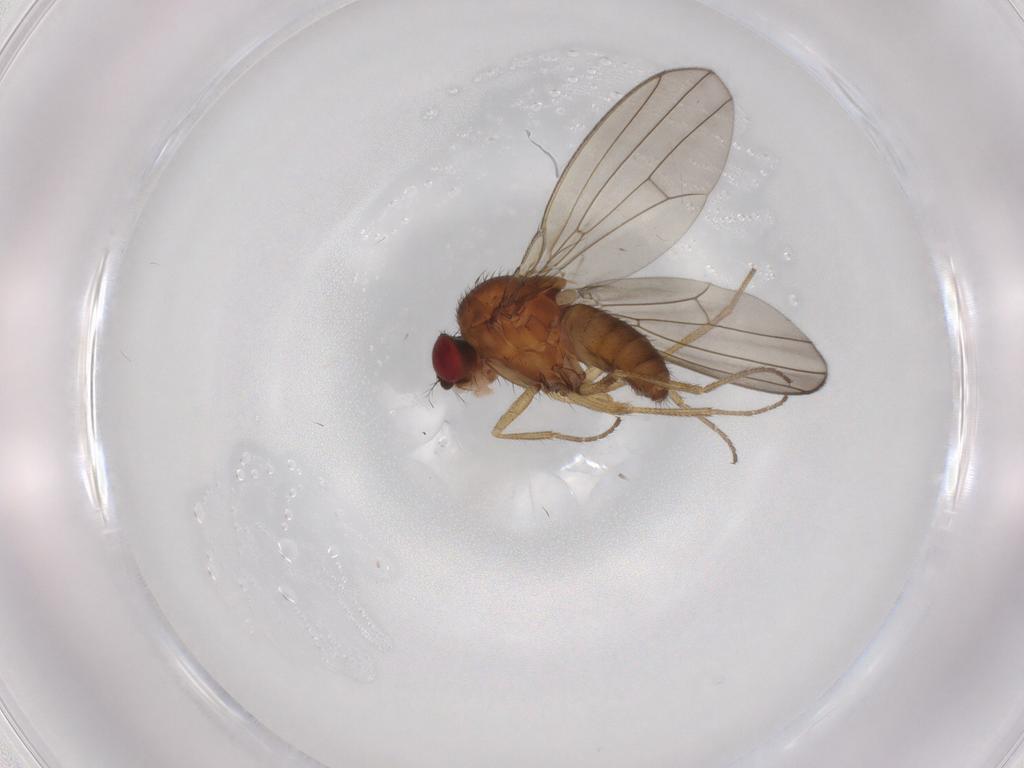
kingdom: Animalia
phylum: Arthropoda
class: Insecta
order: Diptera
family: Drosophilidae
